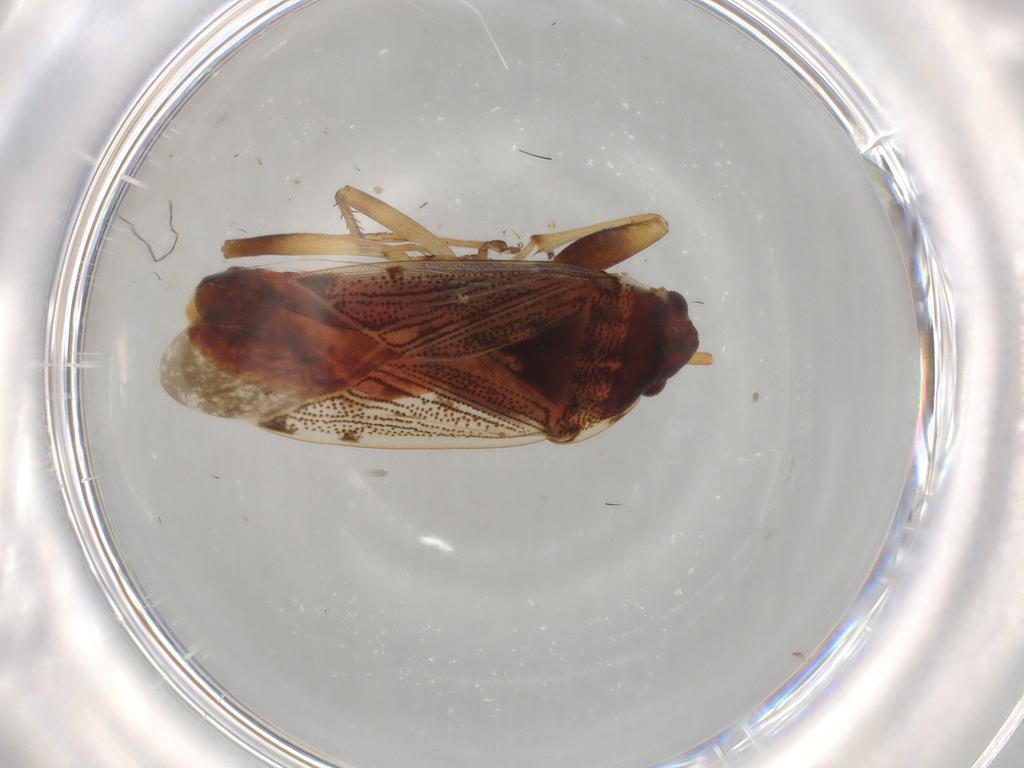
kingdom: Animalia
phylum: Arthropoda
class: Insecta
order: Hemiptera
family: Rhyparochromidae
